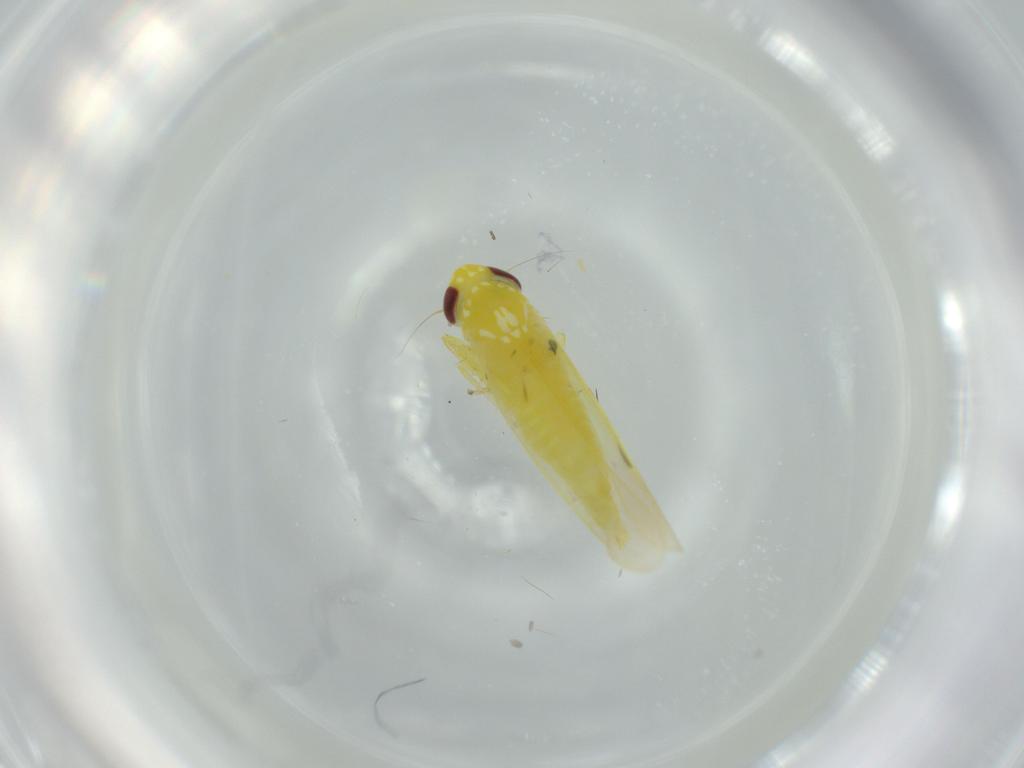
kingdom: Animalia
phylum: Arthropoda
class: Insecta
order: Hemiptera
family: Cicadellidae
